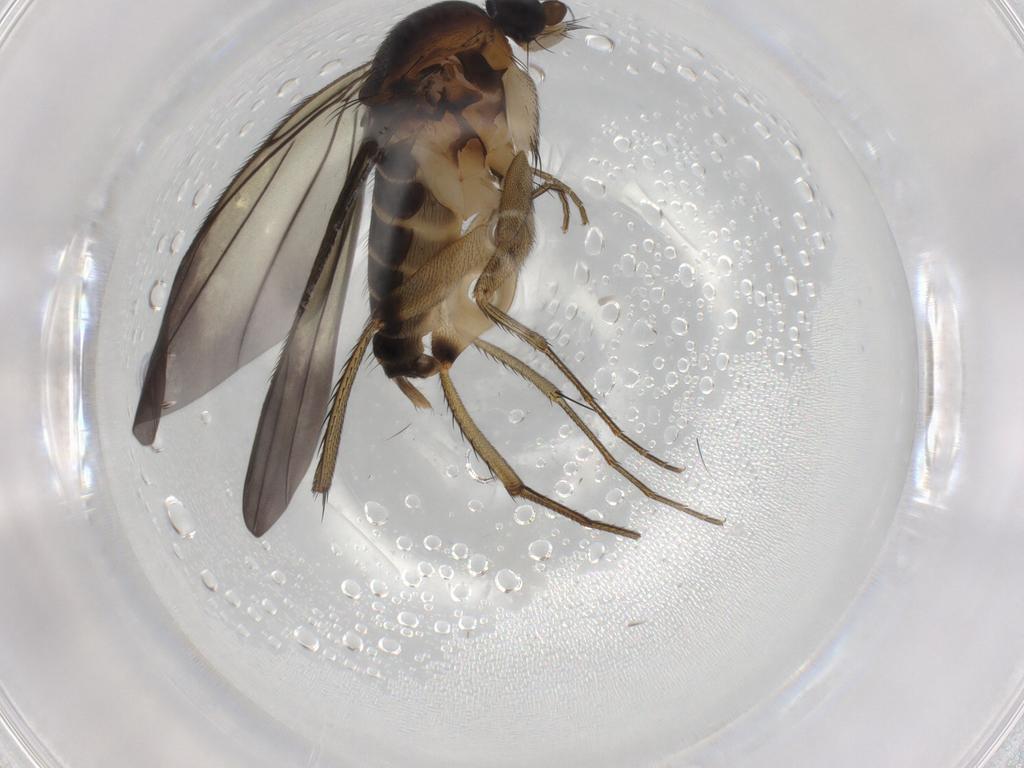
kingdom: Animalia
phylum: Arthropoda
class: Insecta
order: Diptera
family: Phoridae
